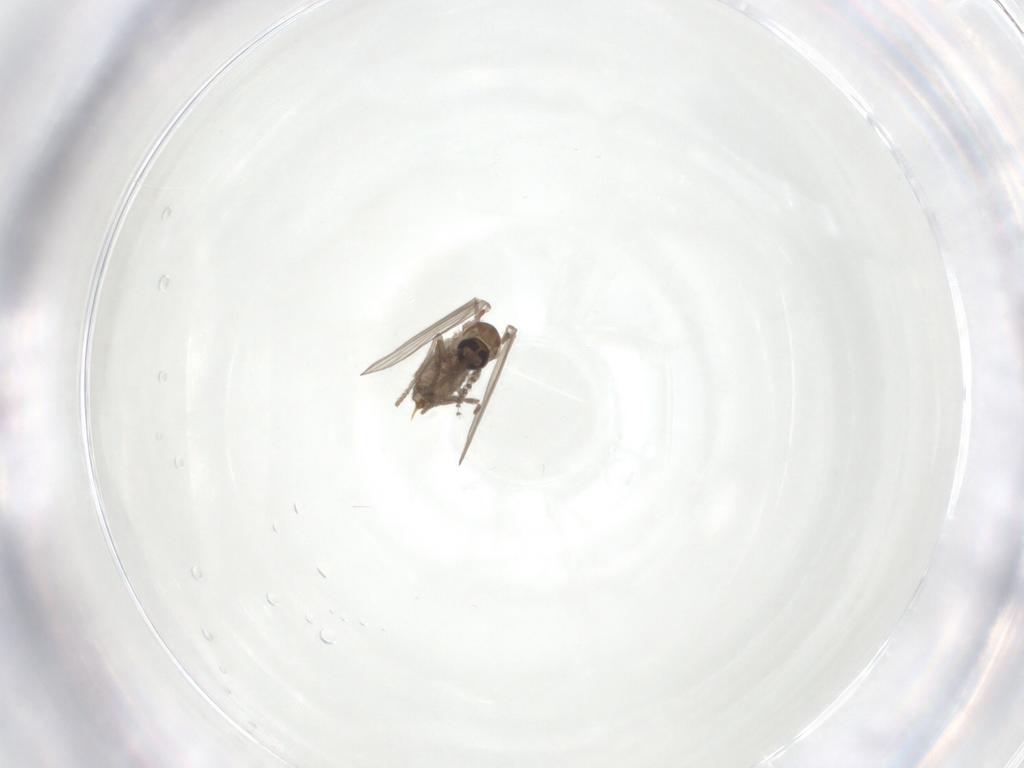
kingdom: Animalia
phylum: Arthropoda
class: Insecta
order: Diptera
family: Psychodidae
